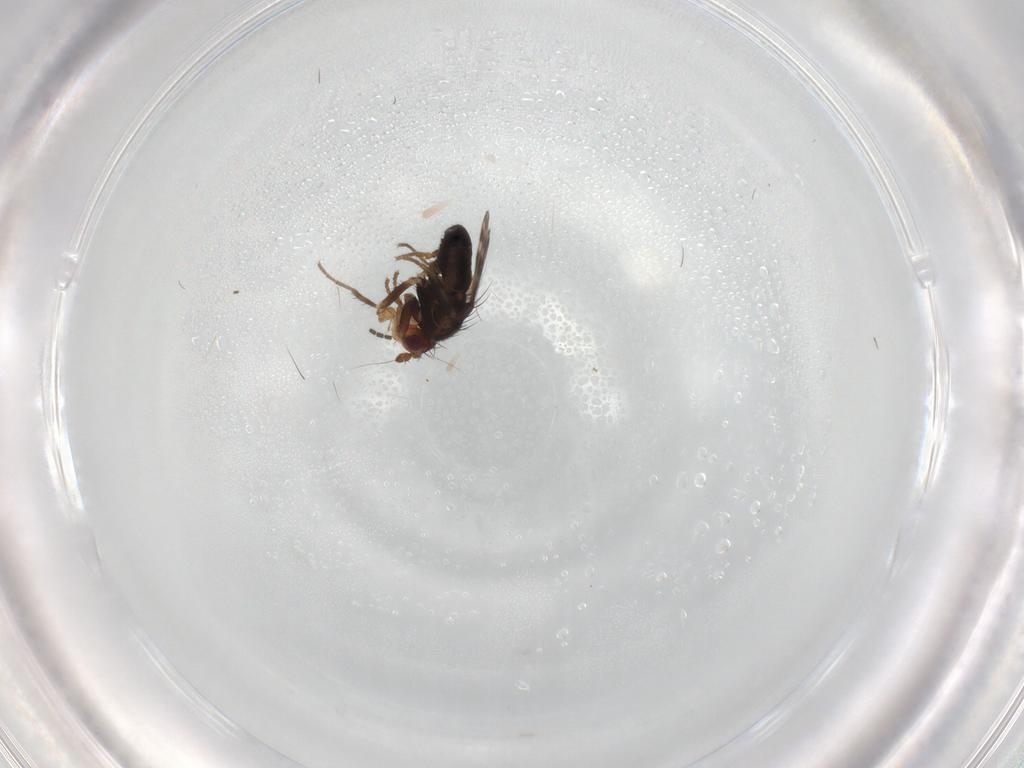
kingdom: Animalia
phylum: Arthropoda
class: Insecta
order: Diptera
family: Sphaeroceridae
